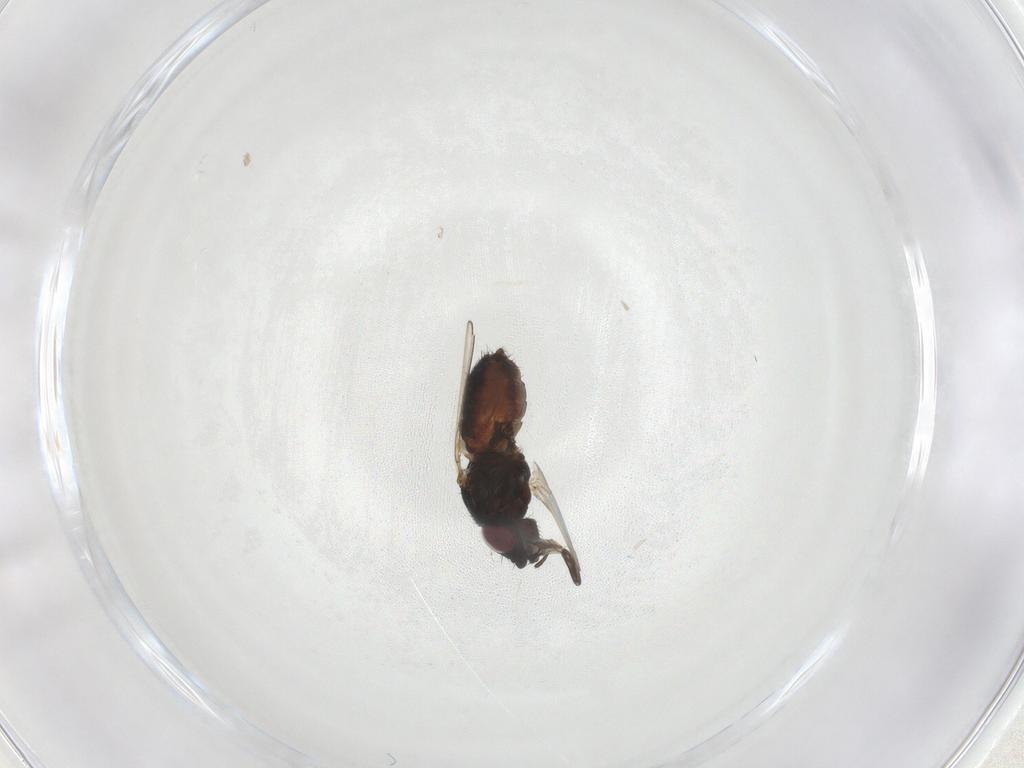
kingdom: Animalia
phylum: Arthropoda
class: Insecta
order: Diptera
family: Milichiidae
